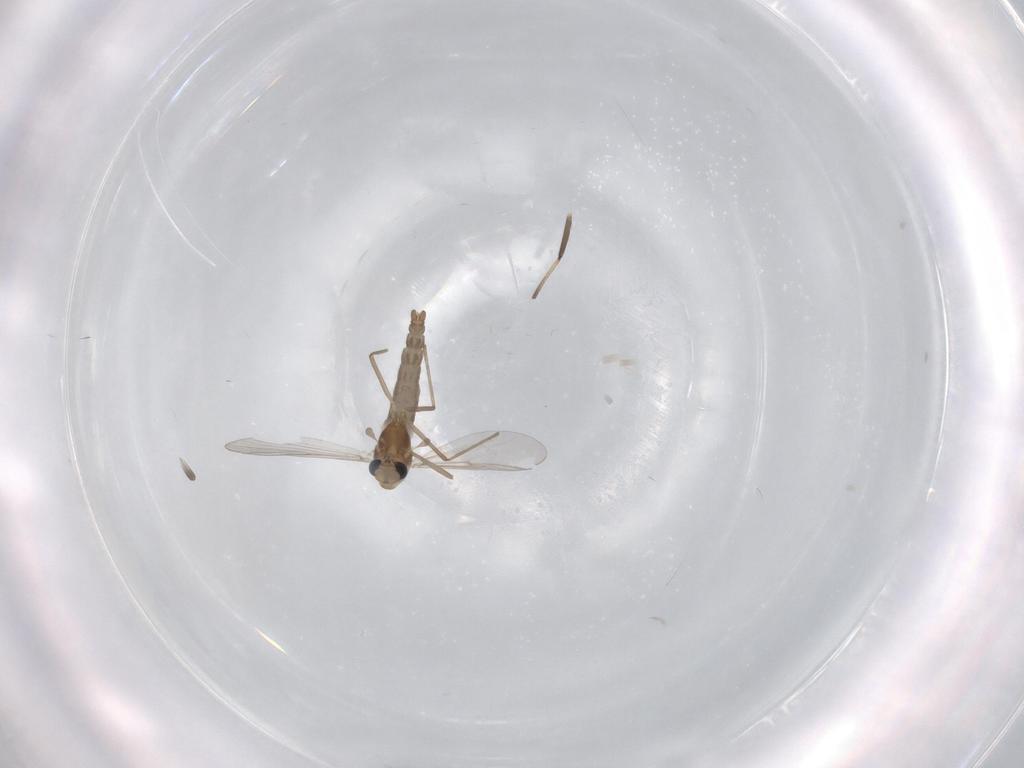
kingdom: Animalia
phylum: Arthropoda
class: Insecta
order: Diptera
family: Chironomidae
